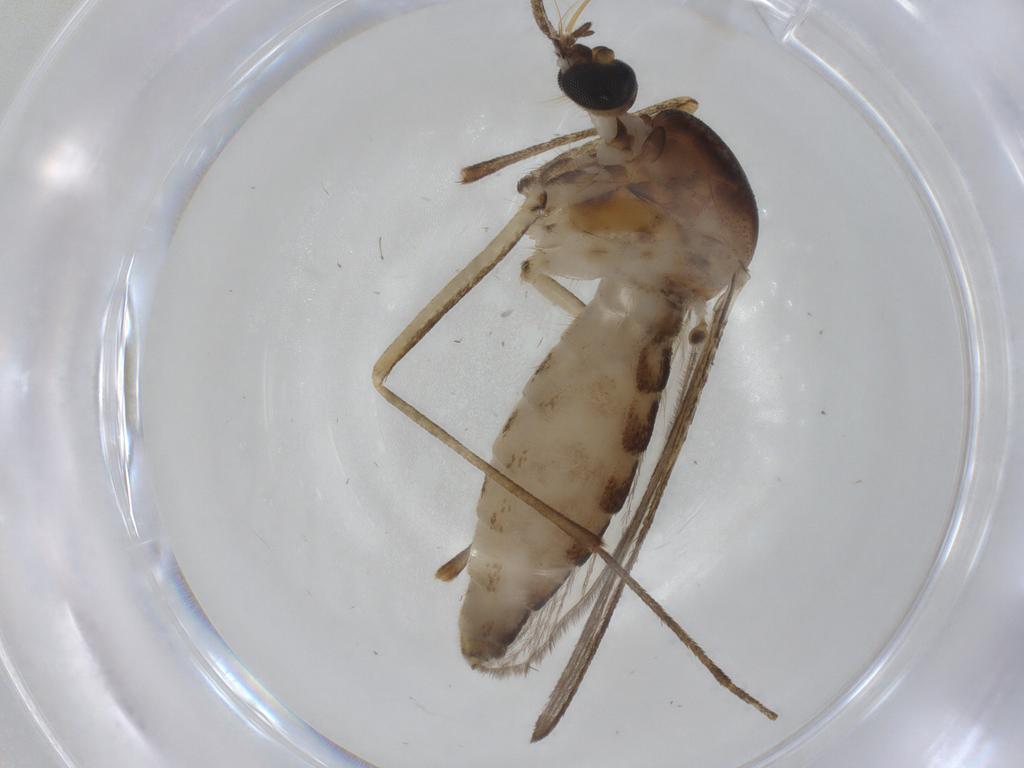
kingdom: Animalia
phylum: Arthropoda
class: Insecta
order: Diptera
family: Culicidae
